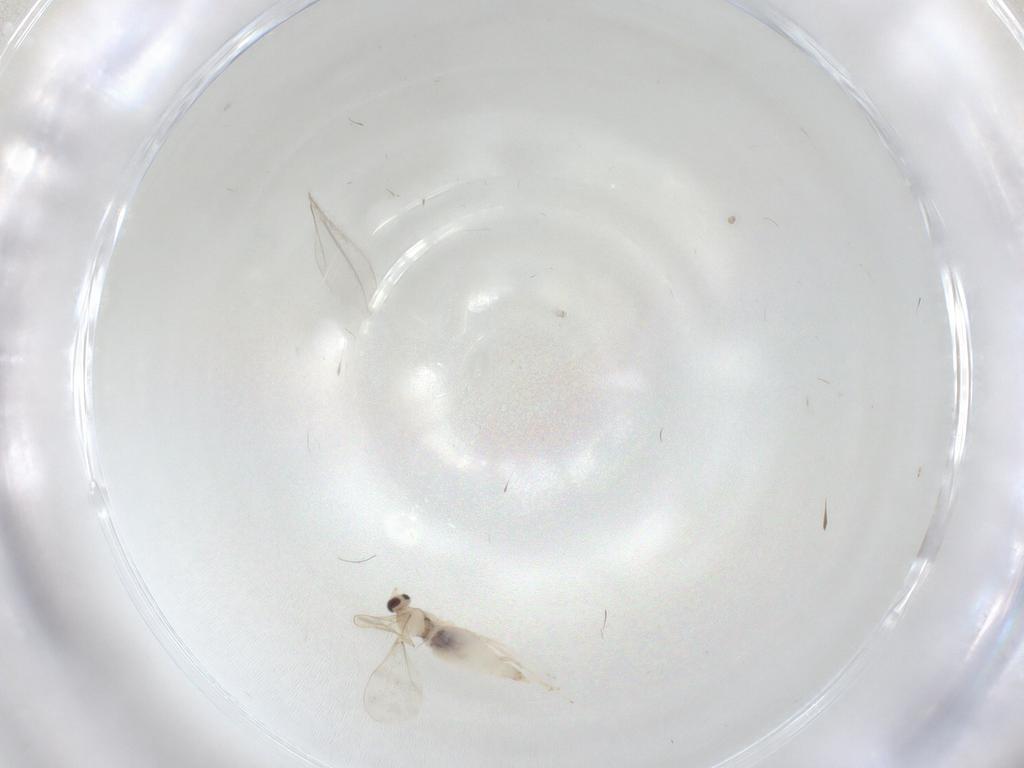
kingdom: Animalia
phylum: Arthropoda
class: Insecta
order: Diptera
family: Cecidomyiidae
